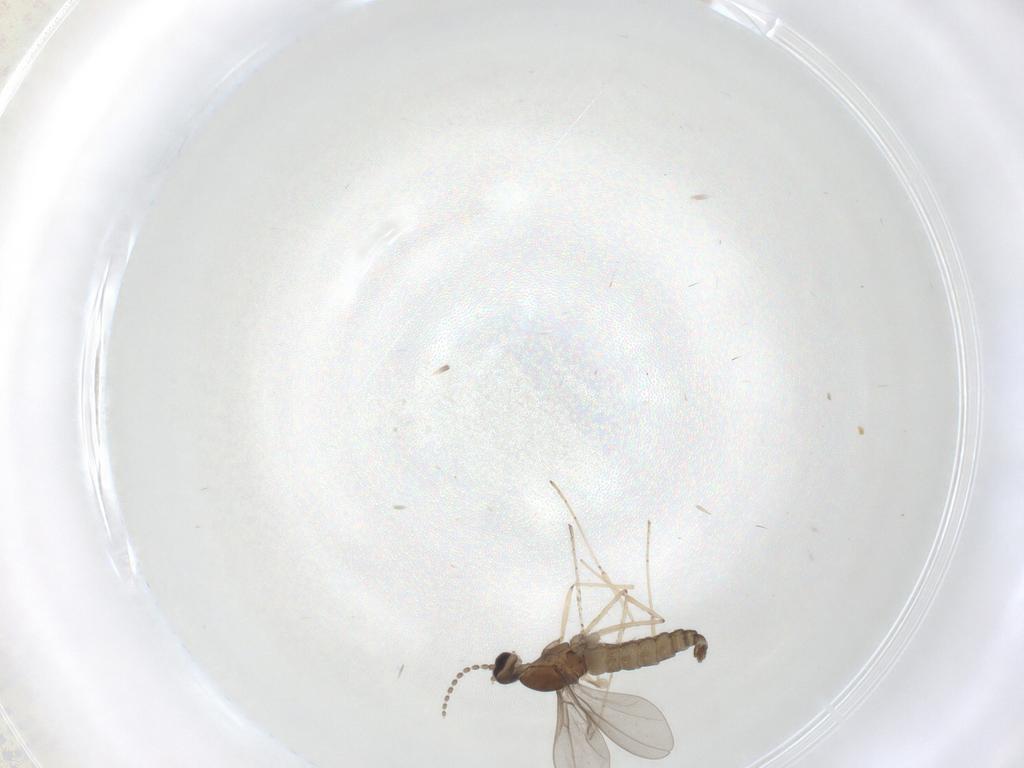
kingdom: Animalia
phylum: Arthropoda
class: Insecta
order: Diptera
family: Cecidomyiidae
